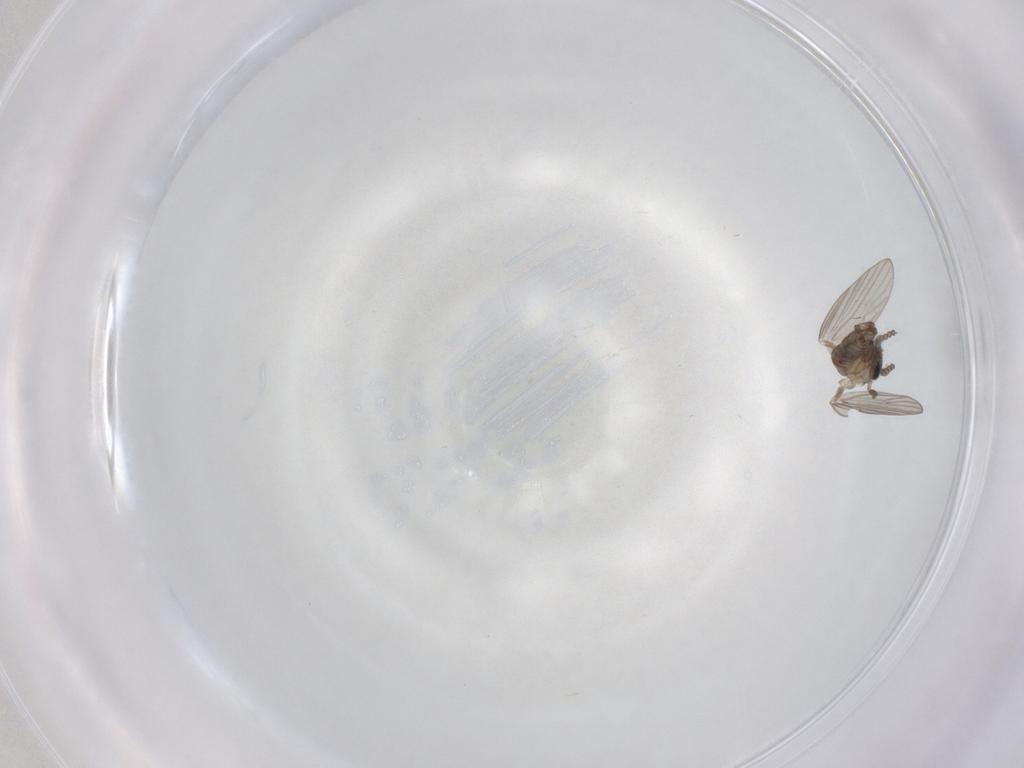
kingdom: Animalia
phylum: Arthropoda
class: Insecta
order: Diptera
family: Psychodidae
